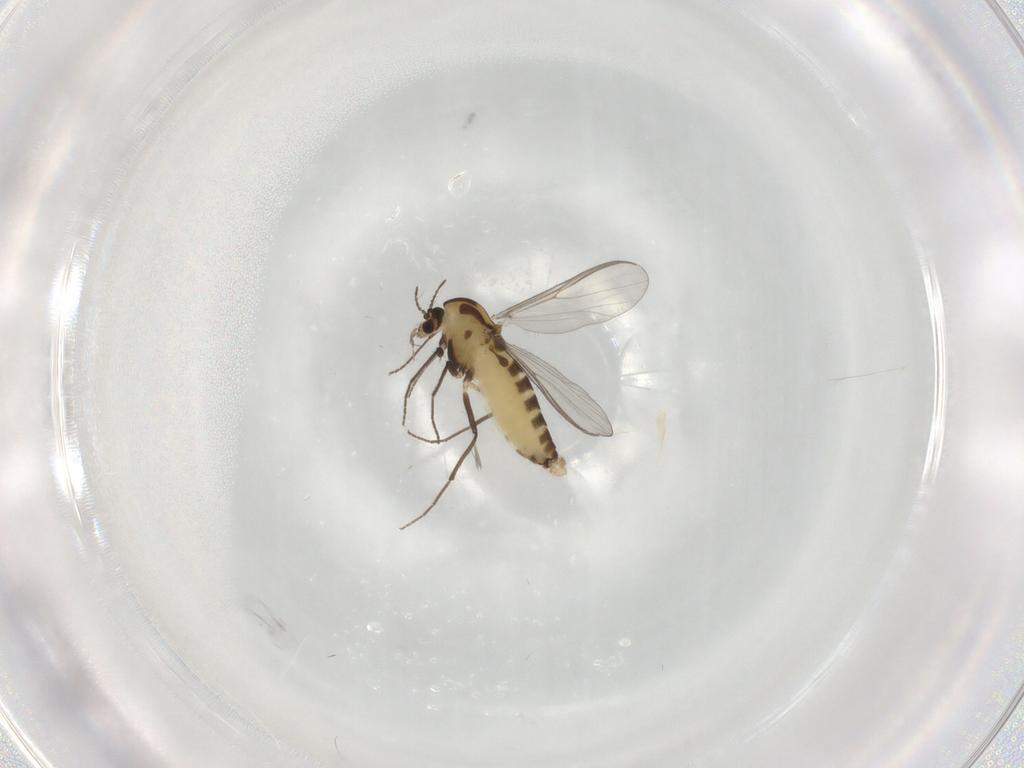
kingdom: Animalia
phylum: Arthropoda
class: Insecta
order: Diptera
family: Chironomidae
